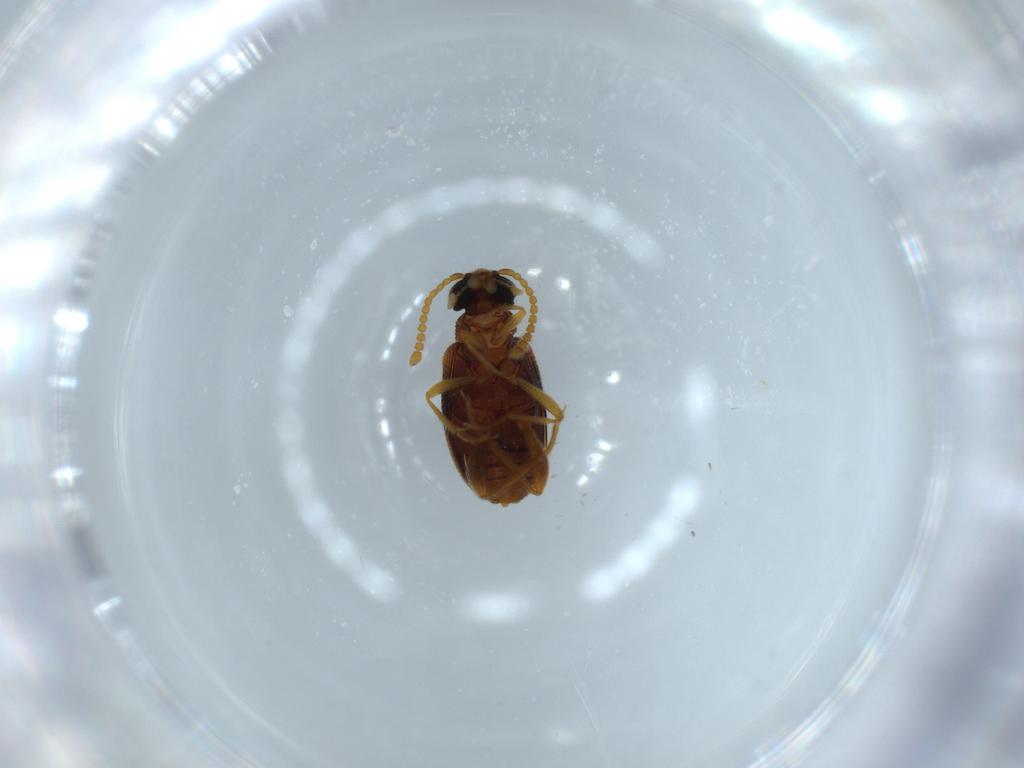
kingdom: Animalia
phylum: Arthropoda
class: Insecta
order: Coleoptera
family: Aderidae
